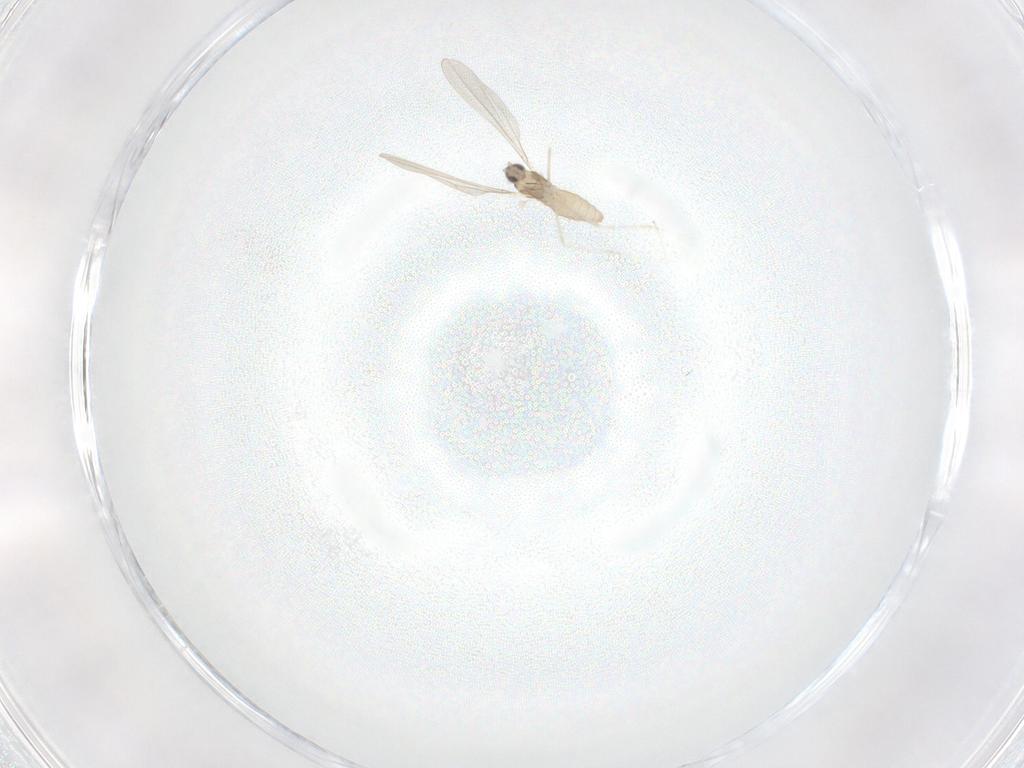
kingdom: Animalia
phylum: Arthropoda
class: Insecta
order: Diptera
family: Cecidomyiidae
